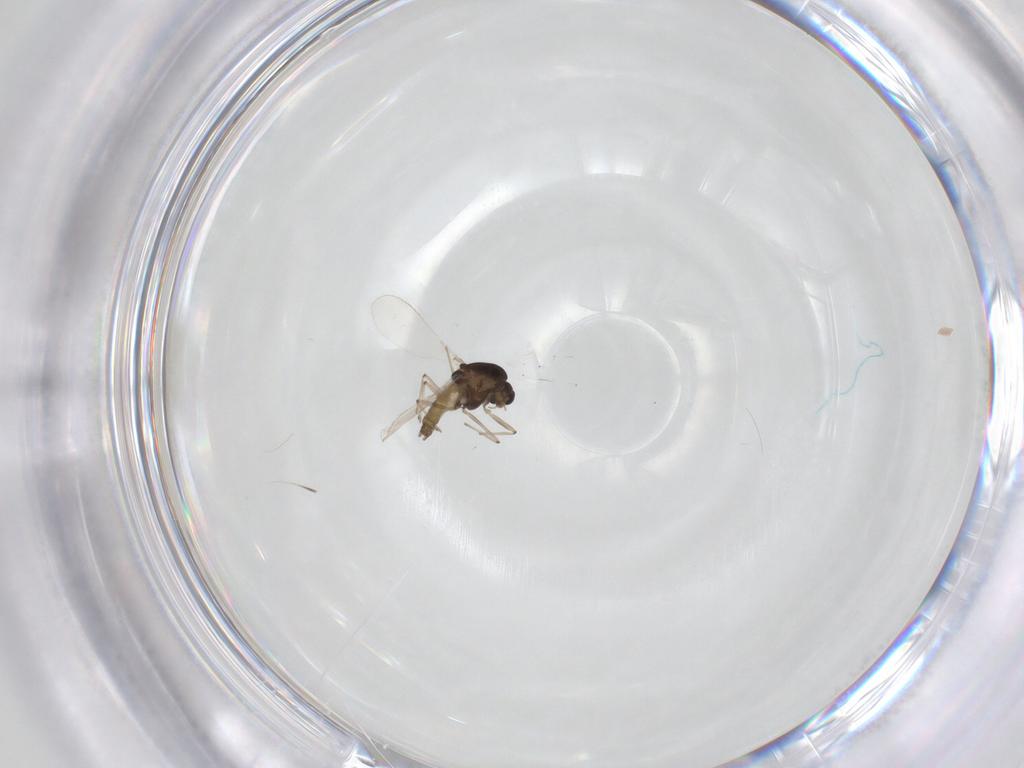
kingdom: Animalia
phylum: Arthropoda
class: Insecta
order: Diptera
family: Chironomidae
